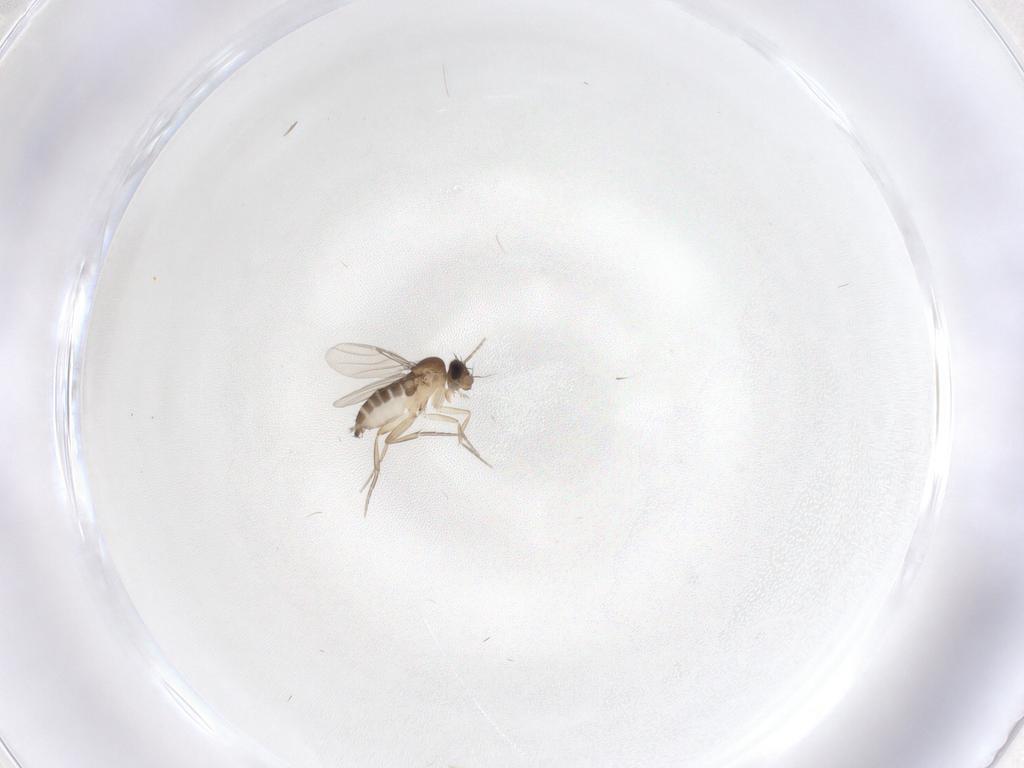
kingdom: Animalia
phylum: Arthropoda
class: Insecta
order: Diptera
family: Phoridae
